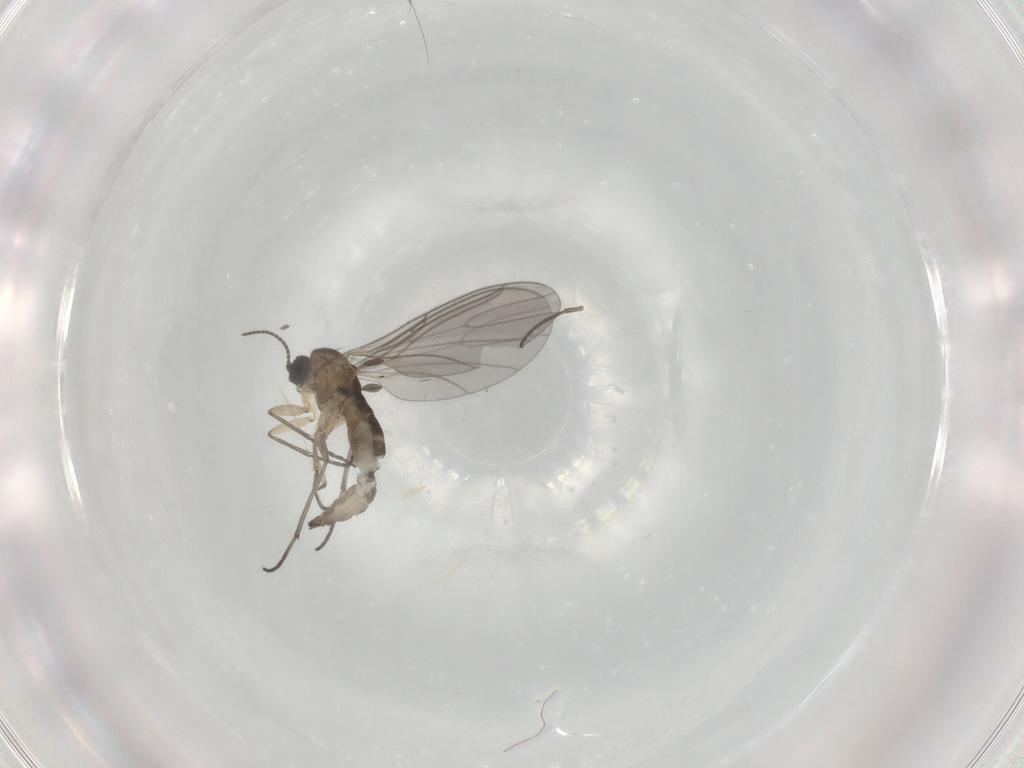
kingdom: Animalia
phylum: Arthropoda
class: Insecta
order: Diptera
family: Sciaridae
